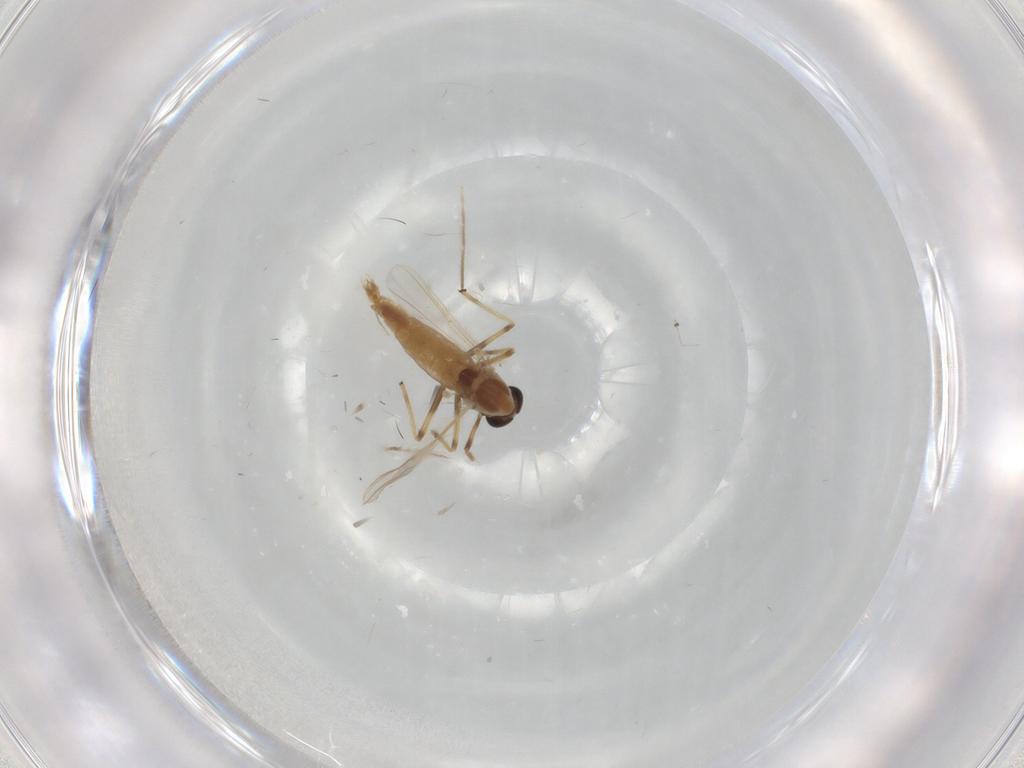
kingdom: Animalia
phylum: Arthropoda
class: Insecta
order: Diptera
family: Chironomidae
